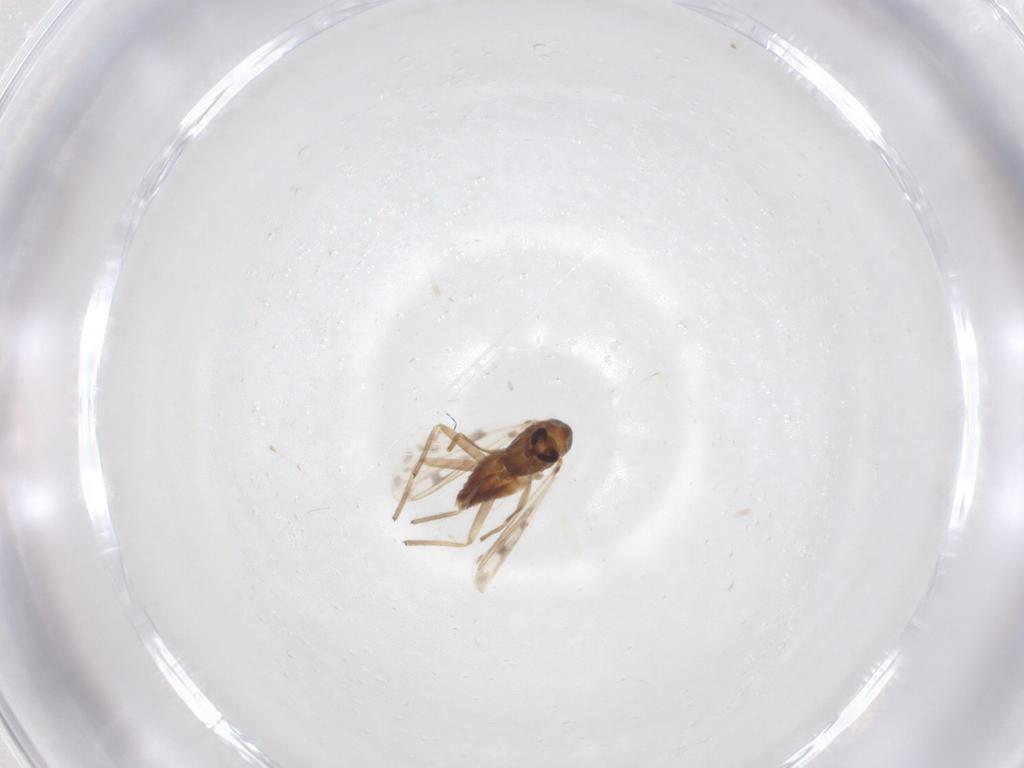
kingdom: Animalia
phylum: Arthropoda
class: Insecta
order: Diptera
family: Chironomidae
